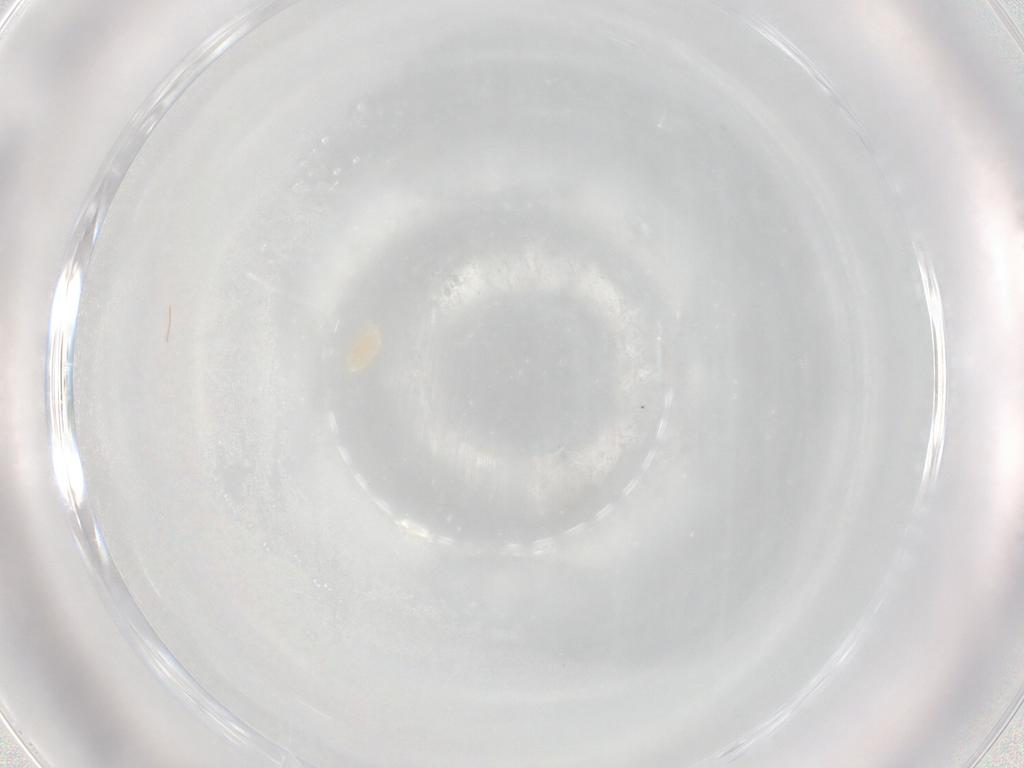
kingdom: Animalia
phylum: Arthropoda
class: Arachnida
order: Trombidiformes
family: Eupodidae
